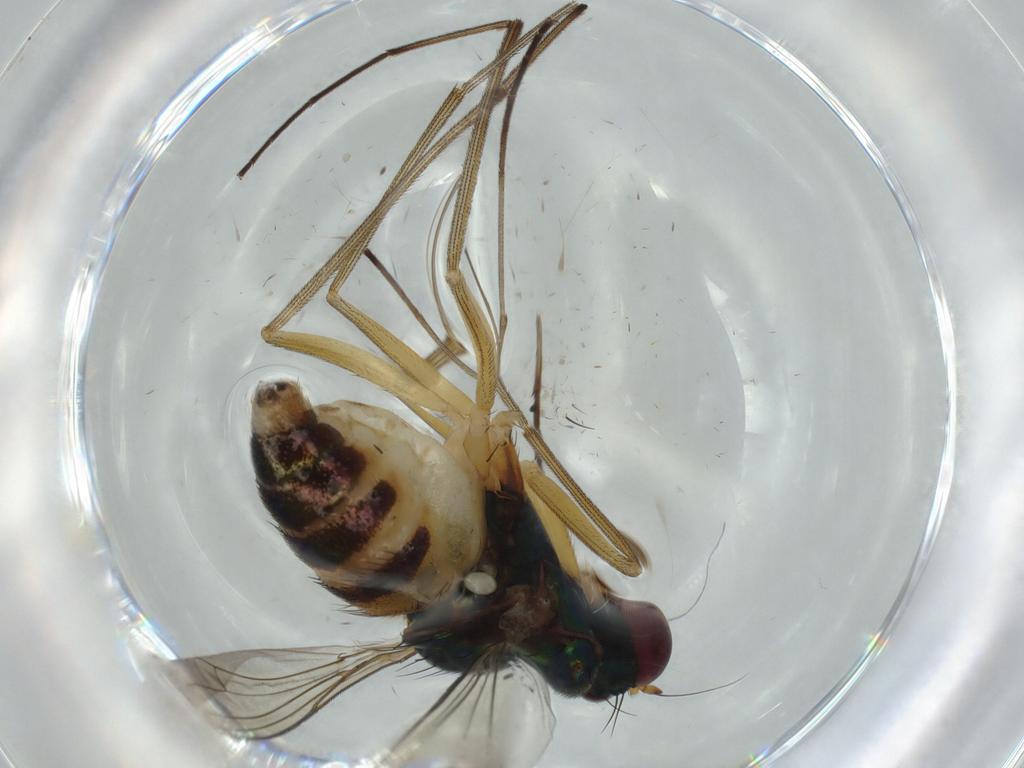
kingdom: Animalia
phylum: Arthropoda
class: Insecta
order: Diptera
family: Dolichopodidae
